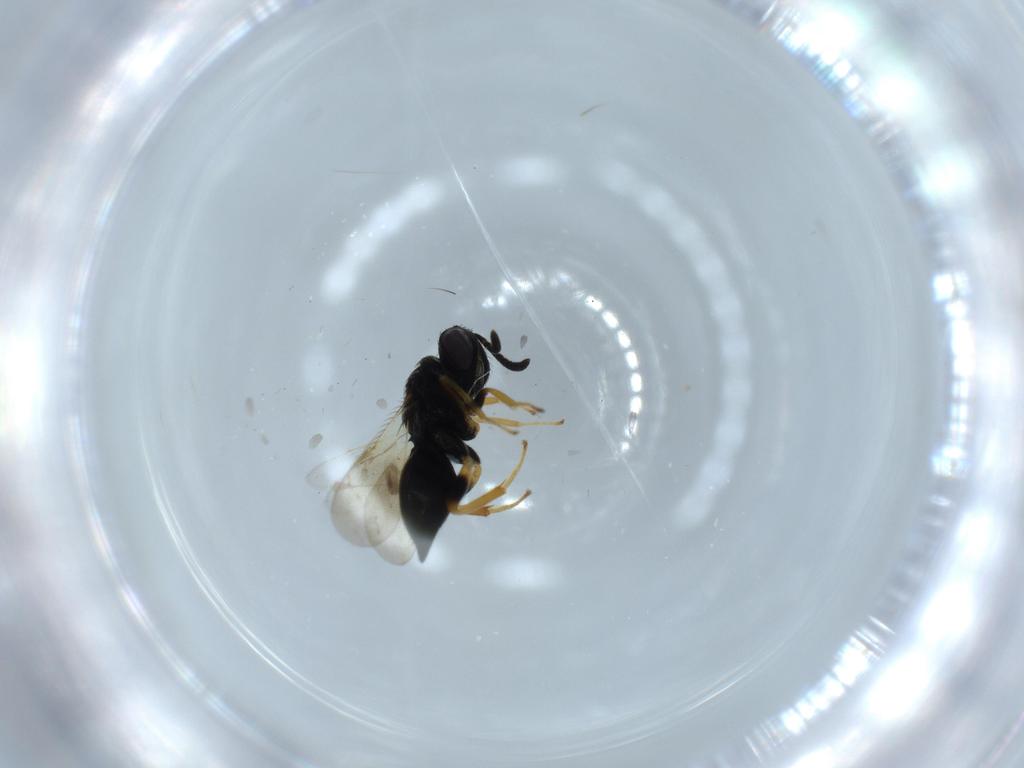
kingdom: Animalia
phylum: Arthropoda
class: Insecta
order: Hymenoptera
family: Pteromalidae
